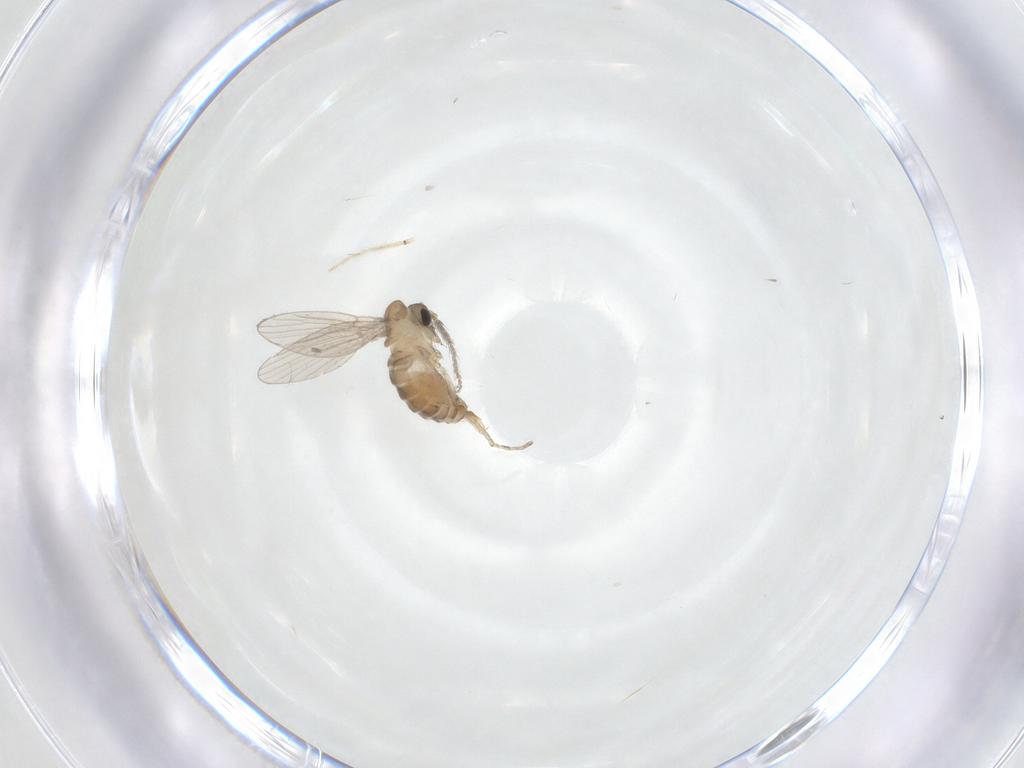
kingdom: Animalia
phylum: Arthropoda
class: Insecta
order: Diptera
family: Chironomidae
